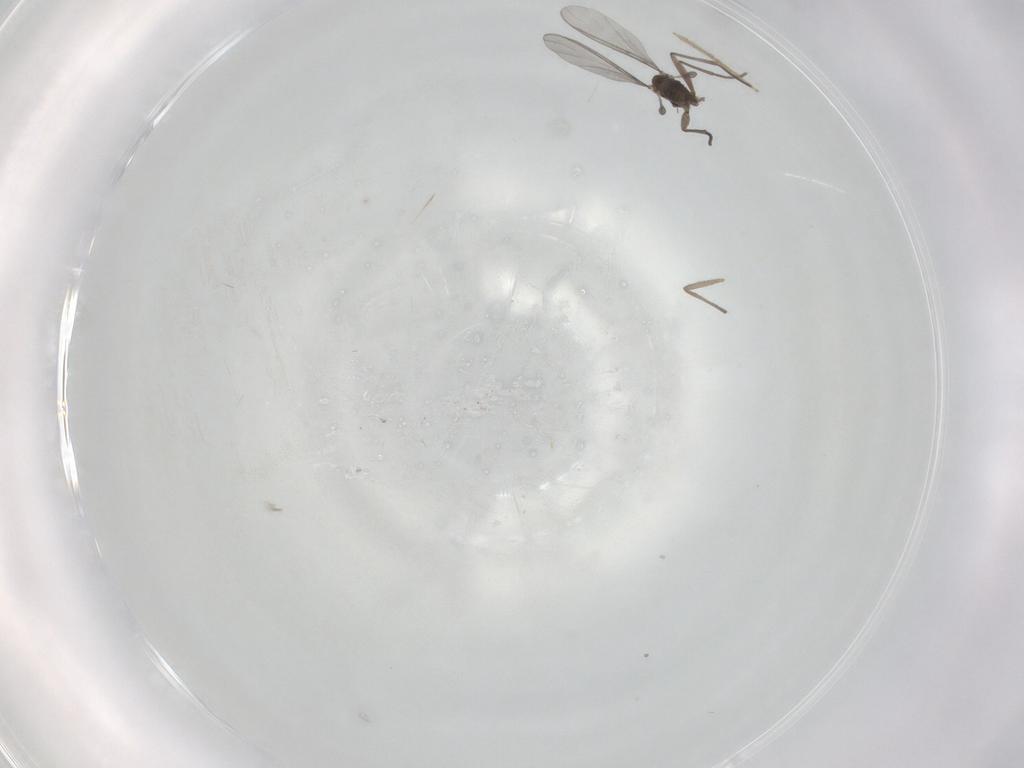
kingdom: Animalia
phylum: Arthropoda
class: Insecta
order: Diptera
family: Sciaridae
